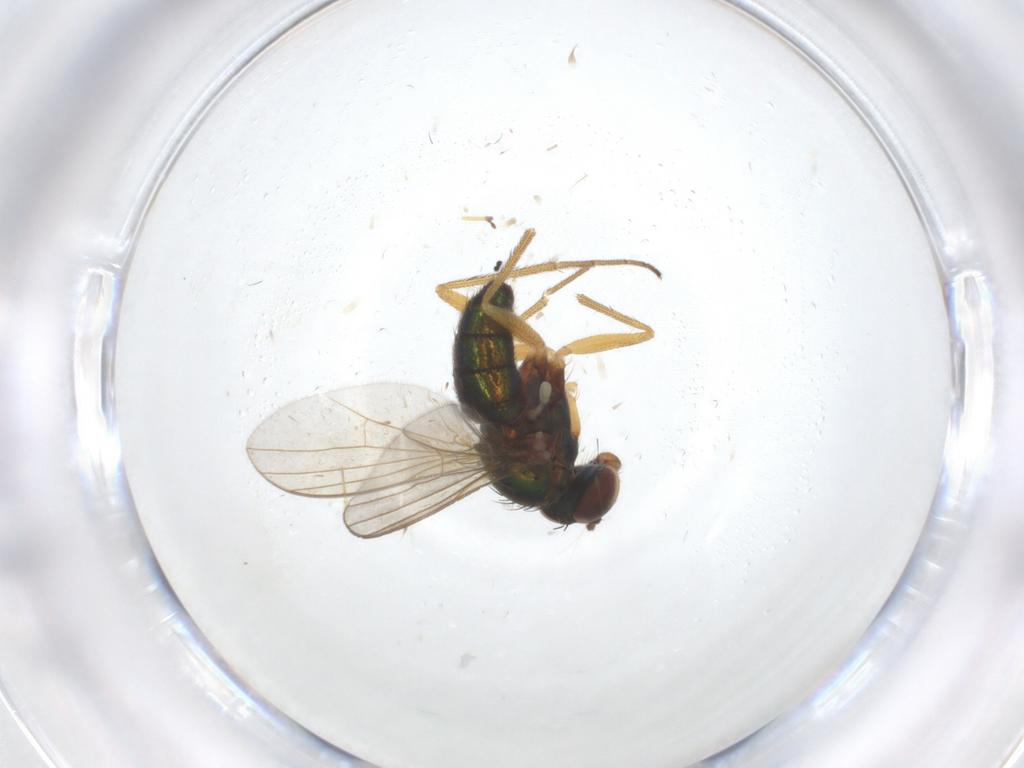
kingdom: Animalia
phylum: Arthropoda
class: Insecta
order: Diptera
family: Dolichopodidae
